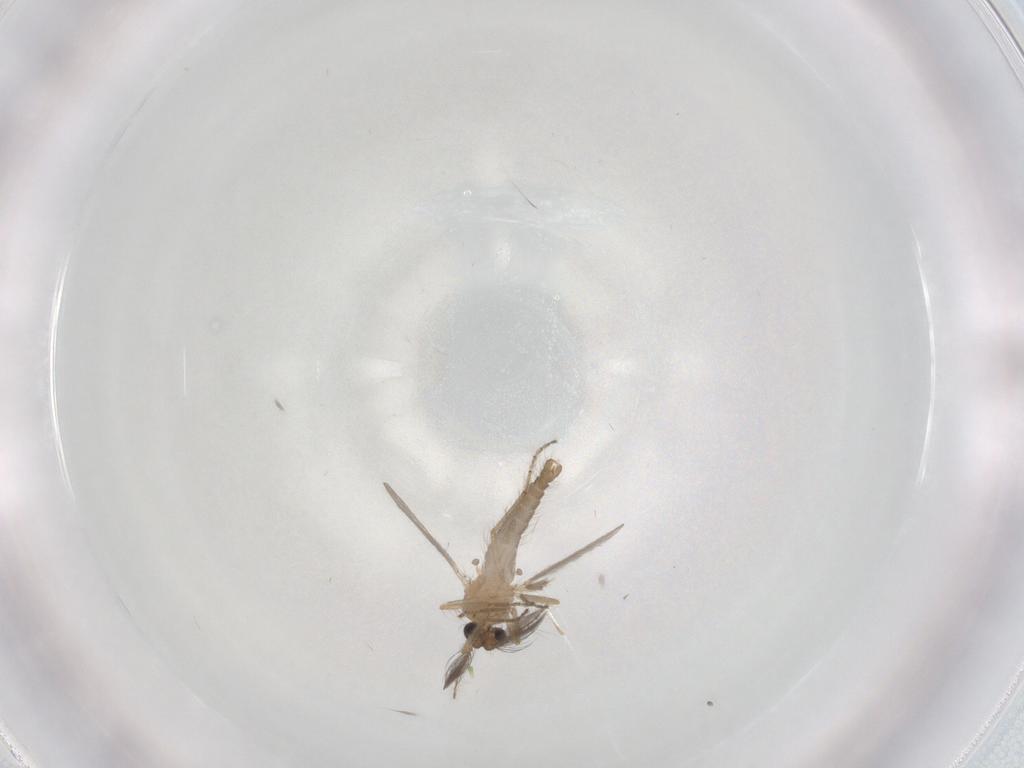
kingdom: Animalia
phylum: Arthropoda
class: Insecta
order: Diptera
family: Ceratopogonidae
